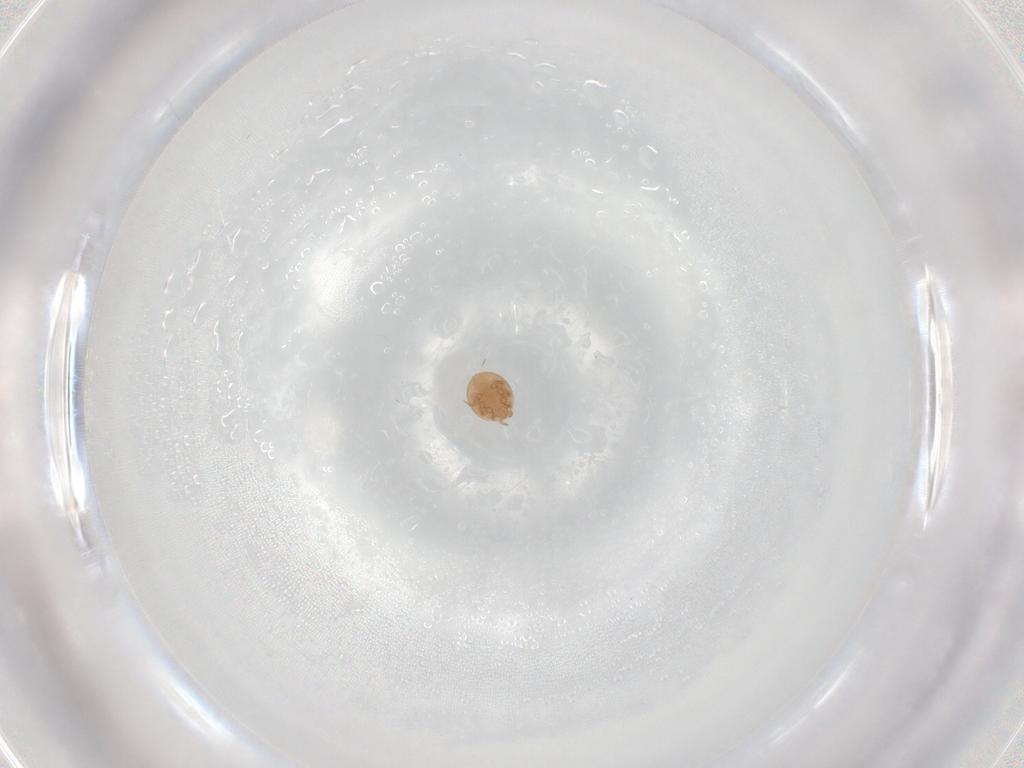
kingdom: Animalia
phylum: Arthropoda
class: Arachnida
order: Mesostigmata
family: Trematuridae
